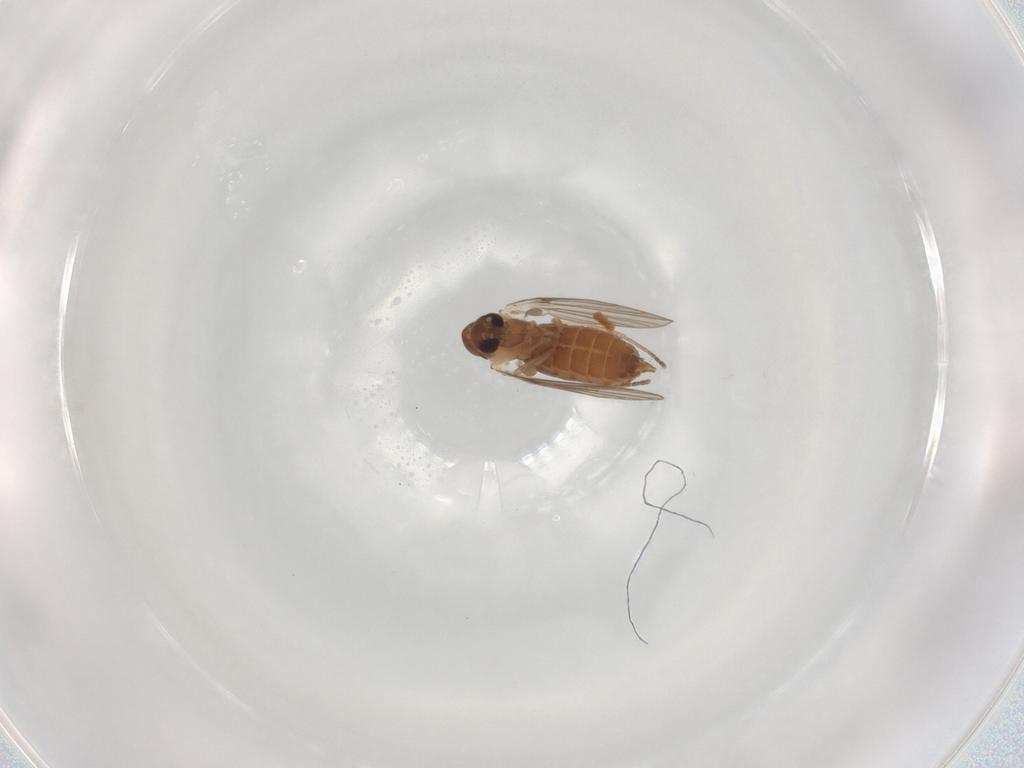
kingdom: Animalia
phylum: Arthropoda
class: Insecta
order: Diptera
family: Chironomidae
